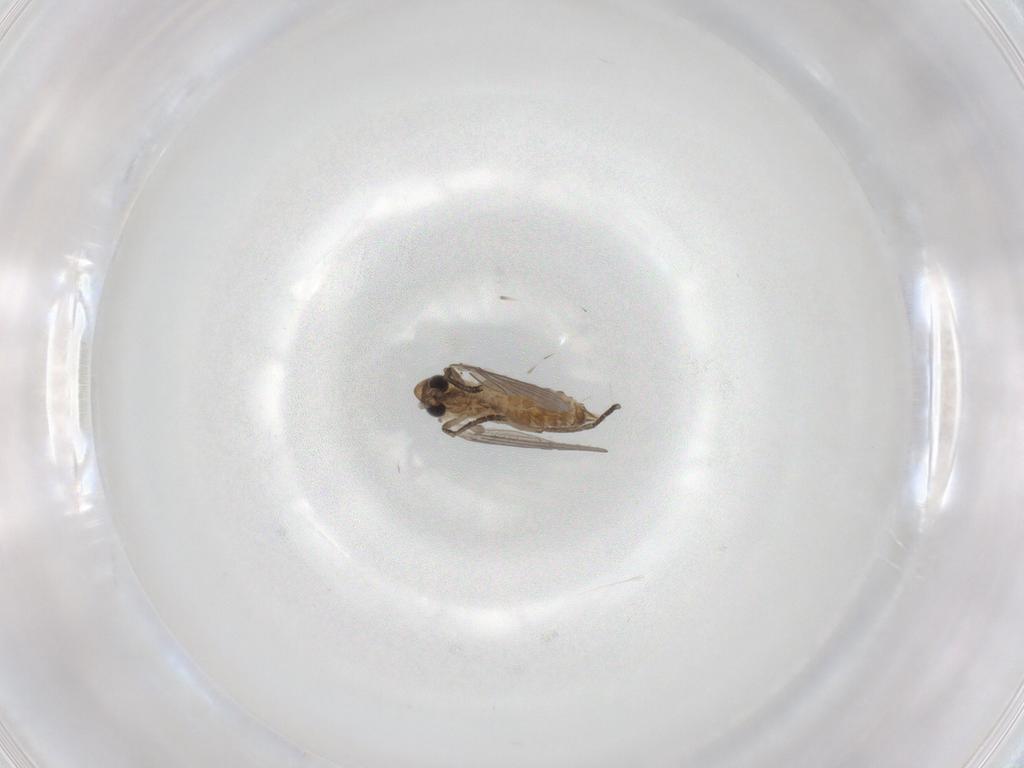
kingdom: Animalia
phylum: Arthropoda
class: Insecta
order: Diptera
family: Psychodidae
